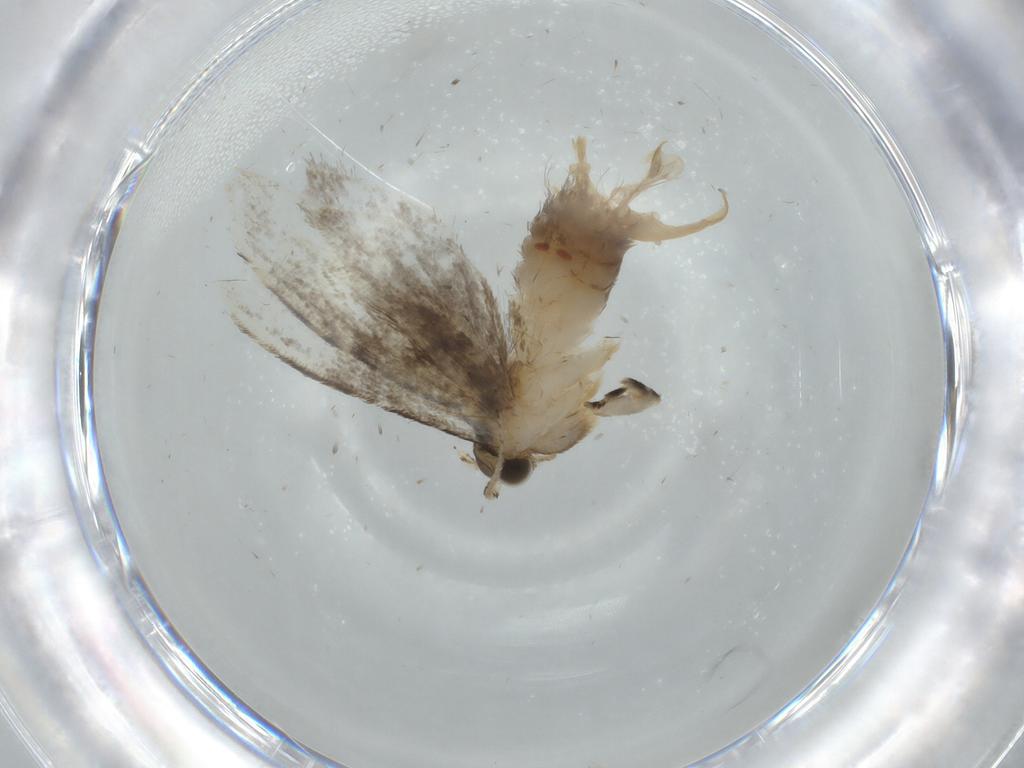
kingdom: Animalia
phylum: Arthropoda
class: Insecta
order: Lepidoptera
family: Tineidae
